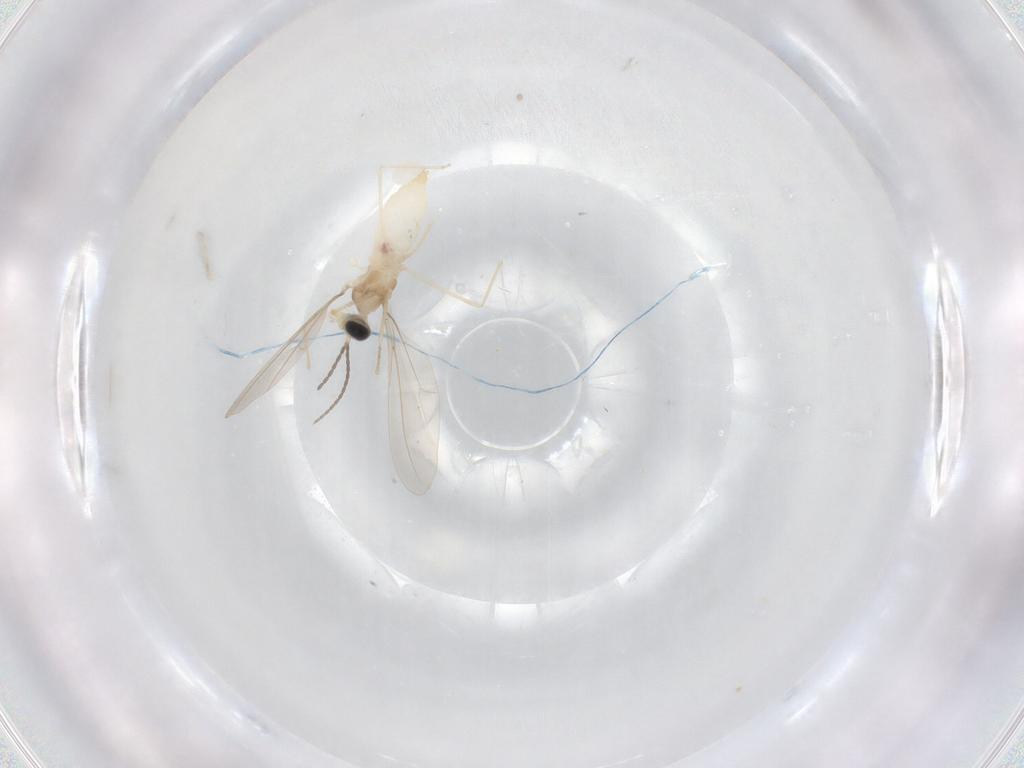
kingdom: Animalia
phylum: Arthropoda
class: Insecta
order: Diptera
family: Cecidomyiidae
